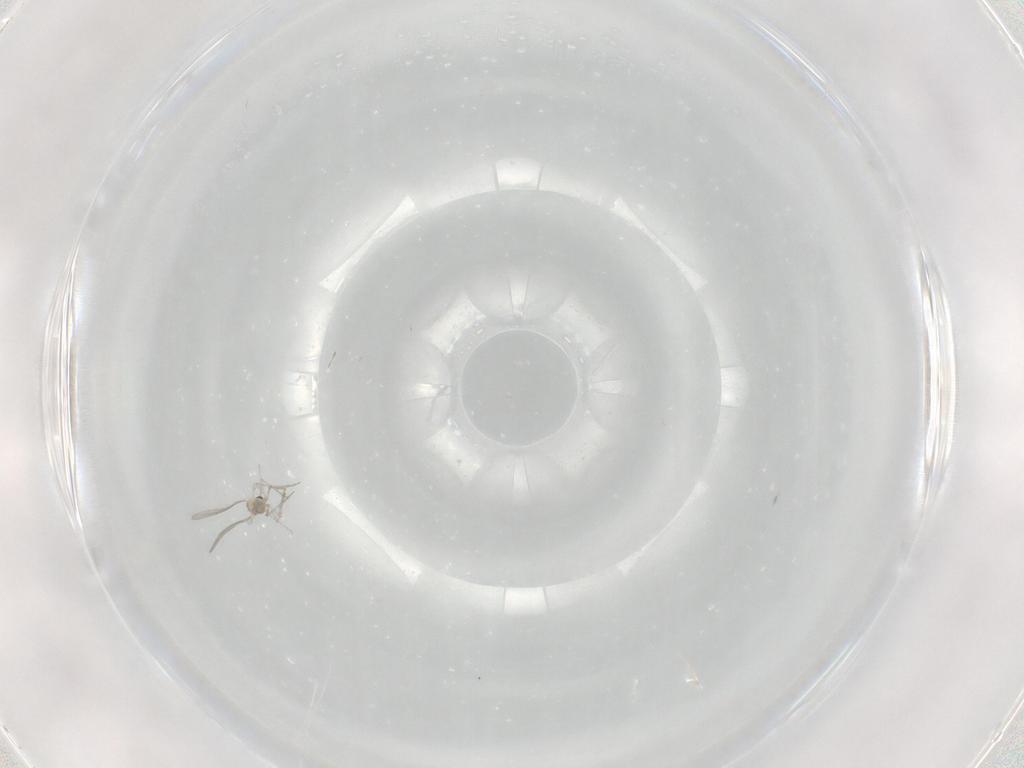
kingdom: Animalia
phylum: Arthropoda
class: Insecta
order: Diptera
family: Cecidomyiidae
